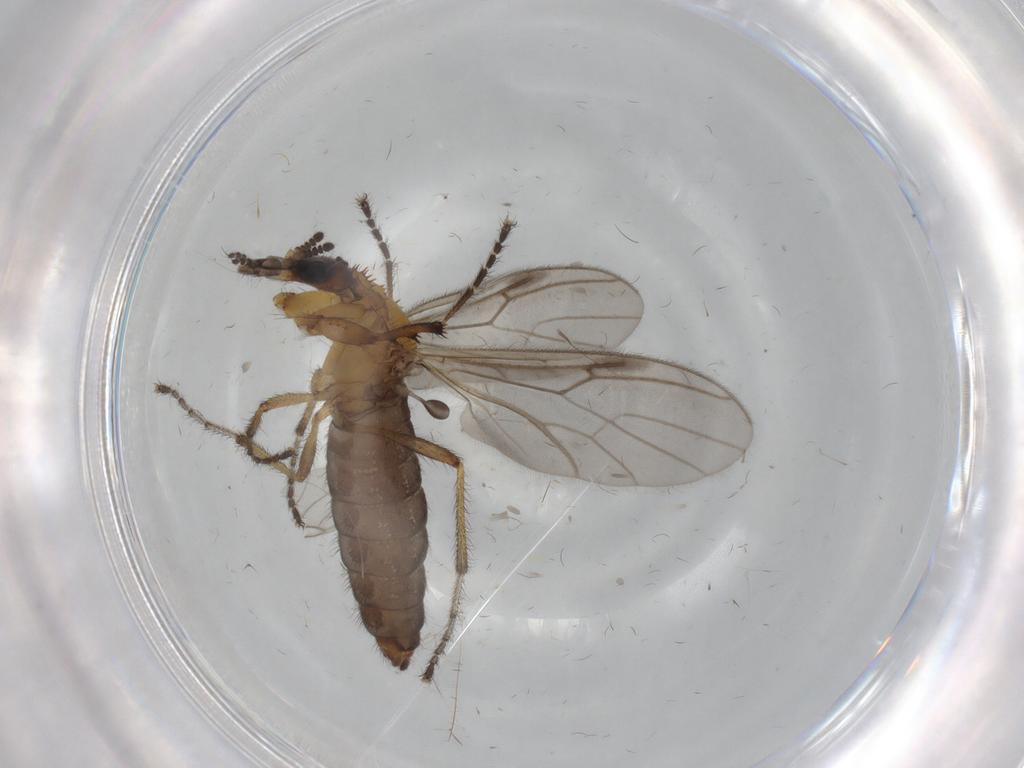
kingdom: Animalia
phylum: Arthropoda
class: Insecta
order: Diptera
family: Bibionidae
